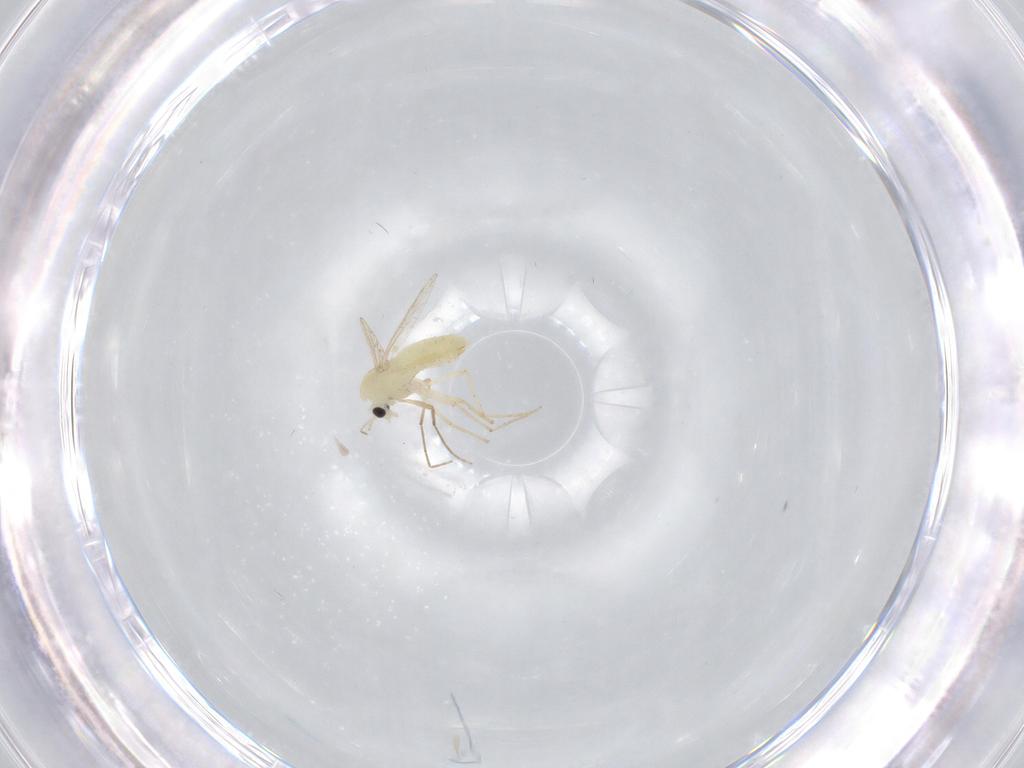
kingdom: Animalia
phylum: Arthropoda
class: Insecta
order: Diptera
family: Chironomidae
